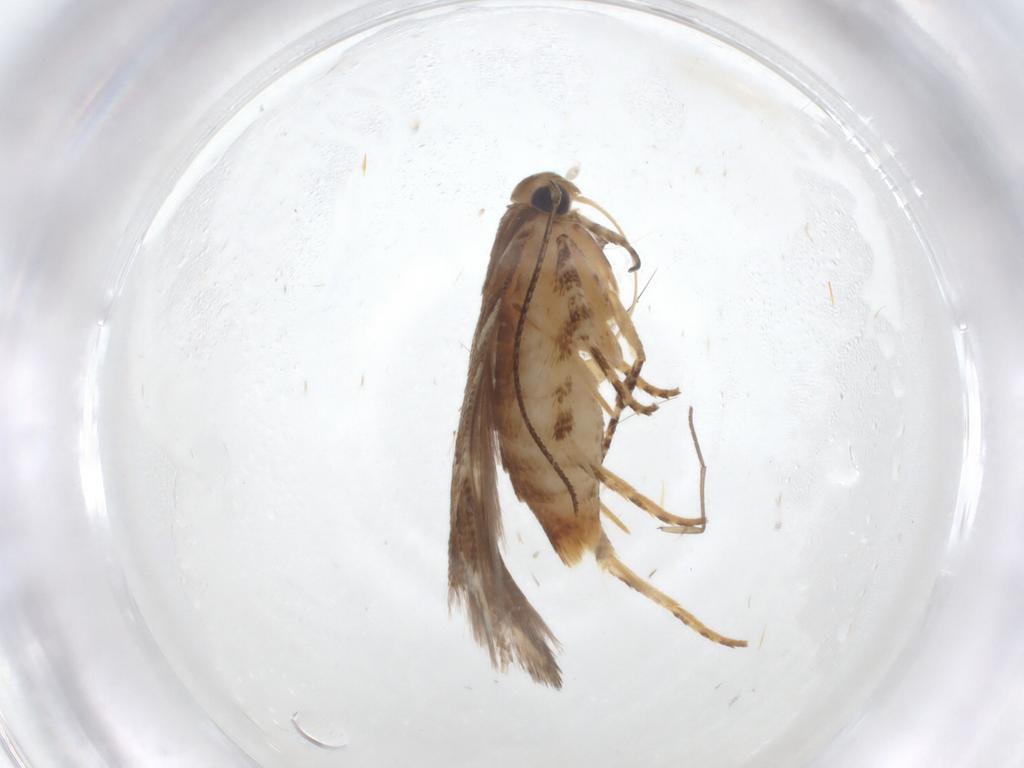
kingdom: Animalia
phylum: Arthropoda
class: Insecta
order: Lepidoptera
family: Gelechiidae
